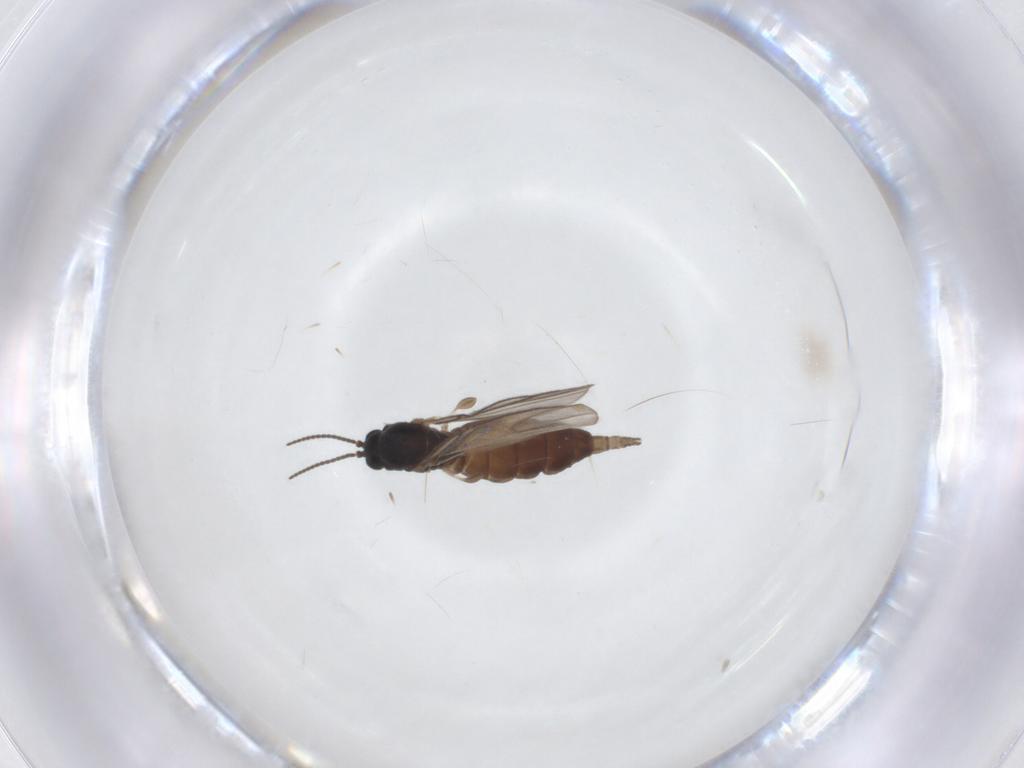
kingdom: Animalia
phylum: Arthropoda
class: Insecta
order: Diptera
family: Drosophilidae
